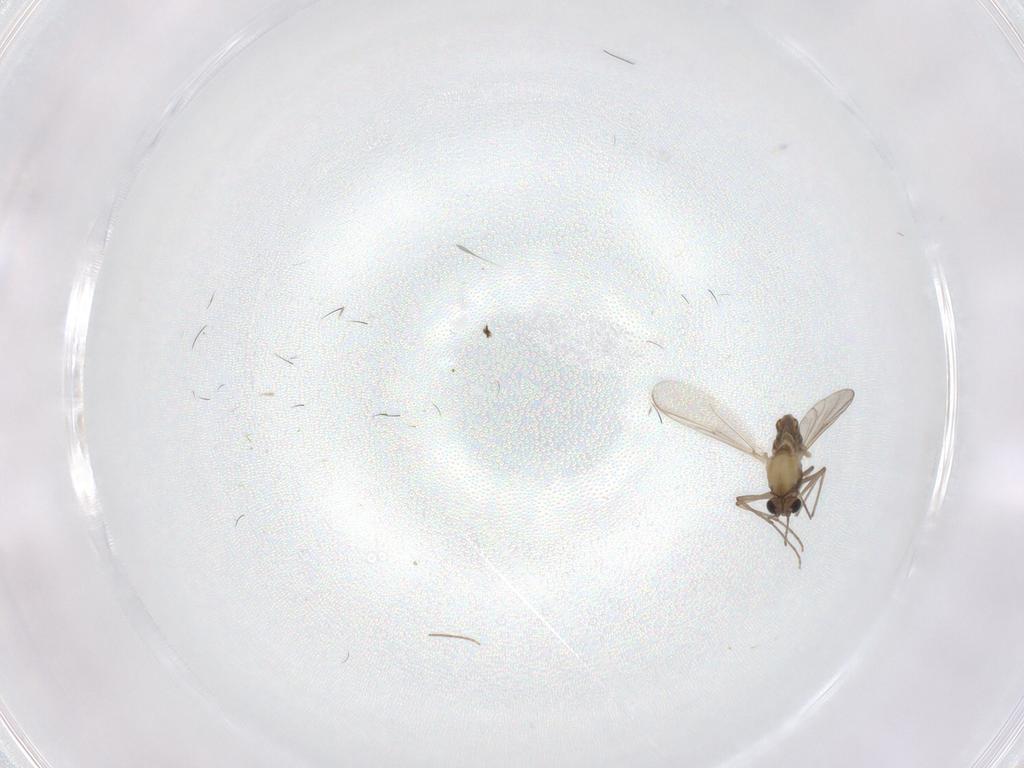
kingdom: Animalia
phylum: Arthropoda
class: Insecta
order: Diptera
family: Chironomidae
